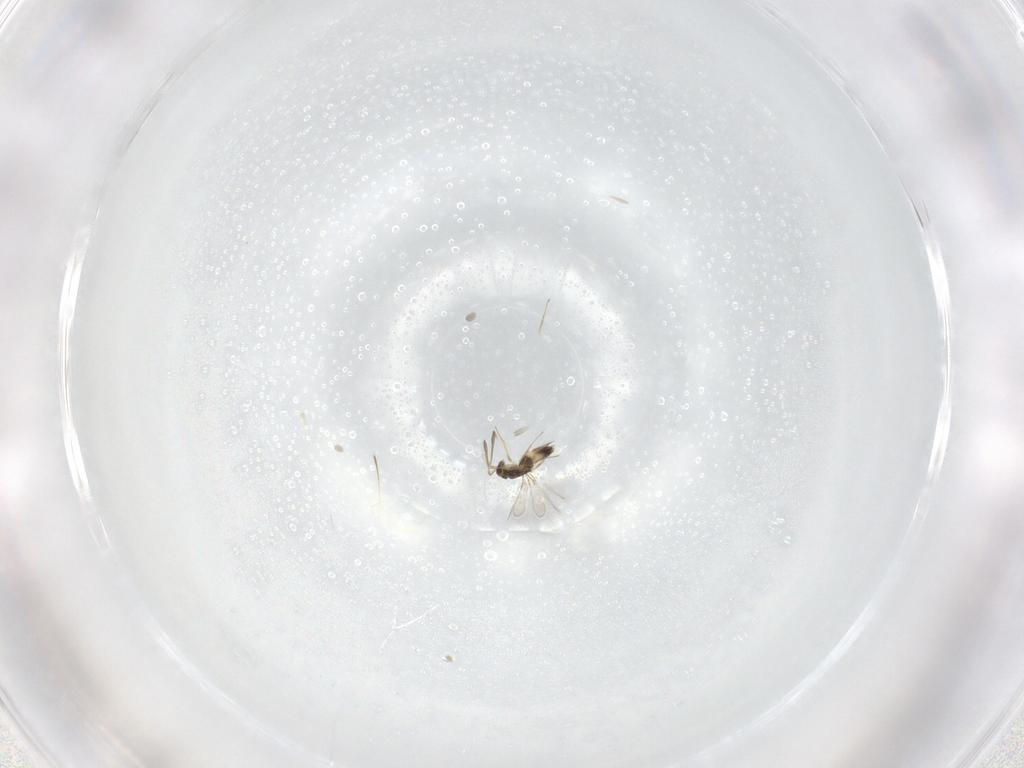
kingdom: Animalia
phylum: Arthropoda
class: Insecta
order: Hymenoptera
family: Mymaridae
